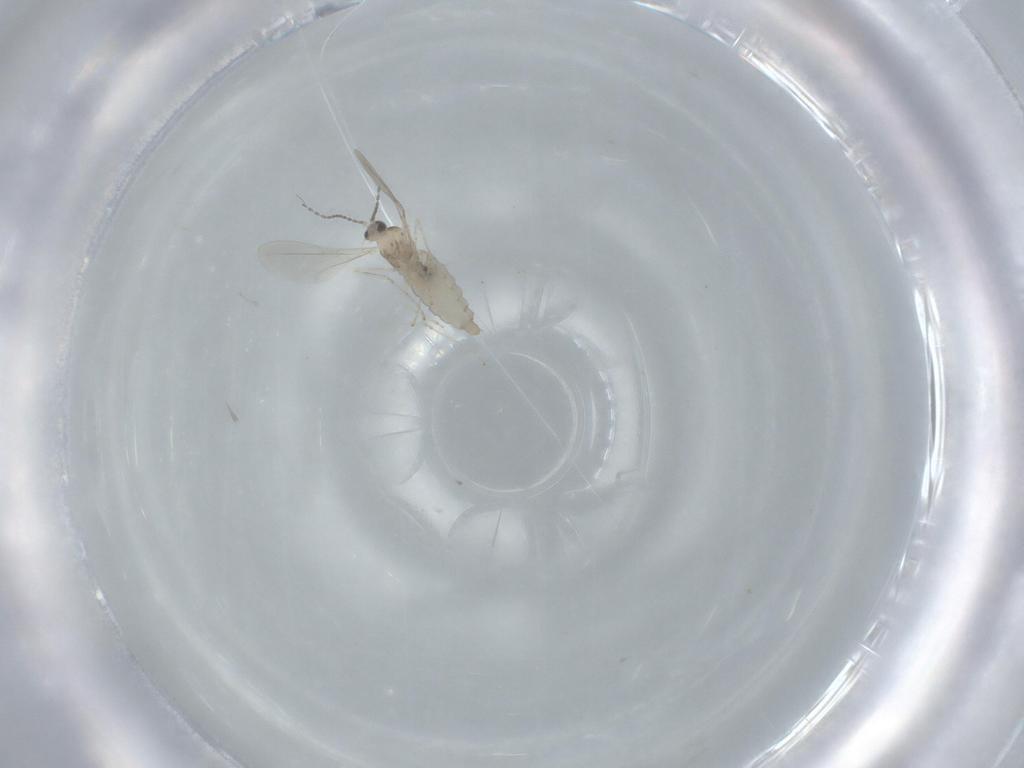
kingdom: Animalia
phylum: Arthropoda
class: Insecta
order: Diptera
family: Cecidomyiidae
